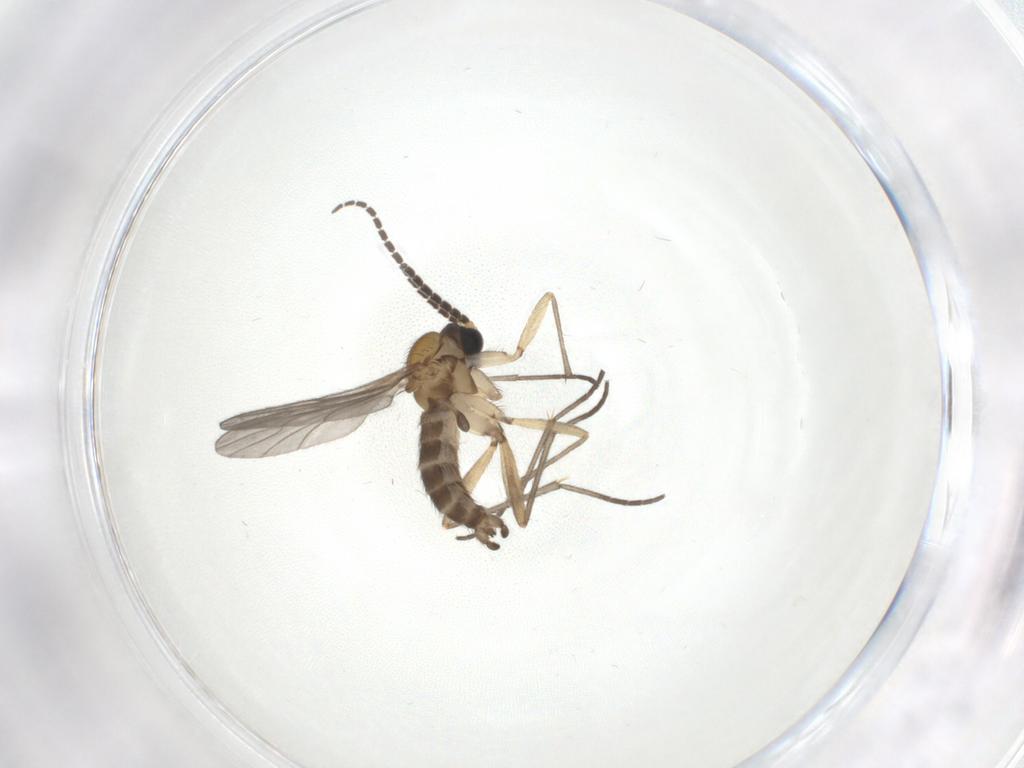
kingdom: Animalia
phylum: Arthropoda
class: Insecta
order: Diptera
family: Sciaridae
